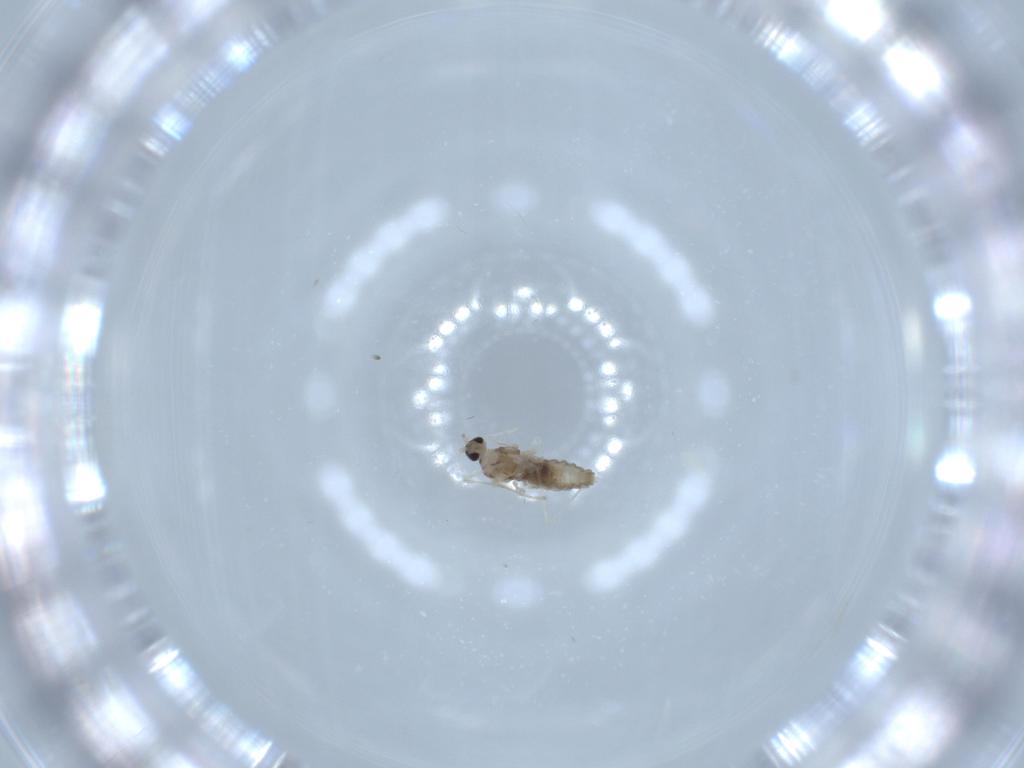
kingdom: Animalia
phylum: Arthropoda
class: Insecta
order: Diptera
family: Cecidomyiidae
